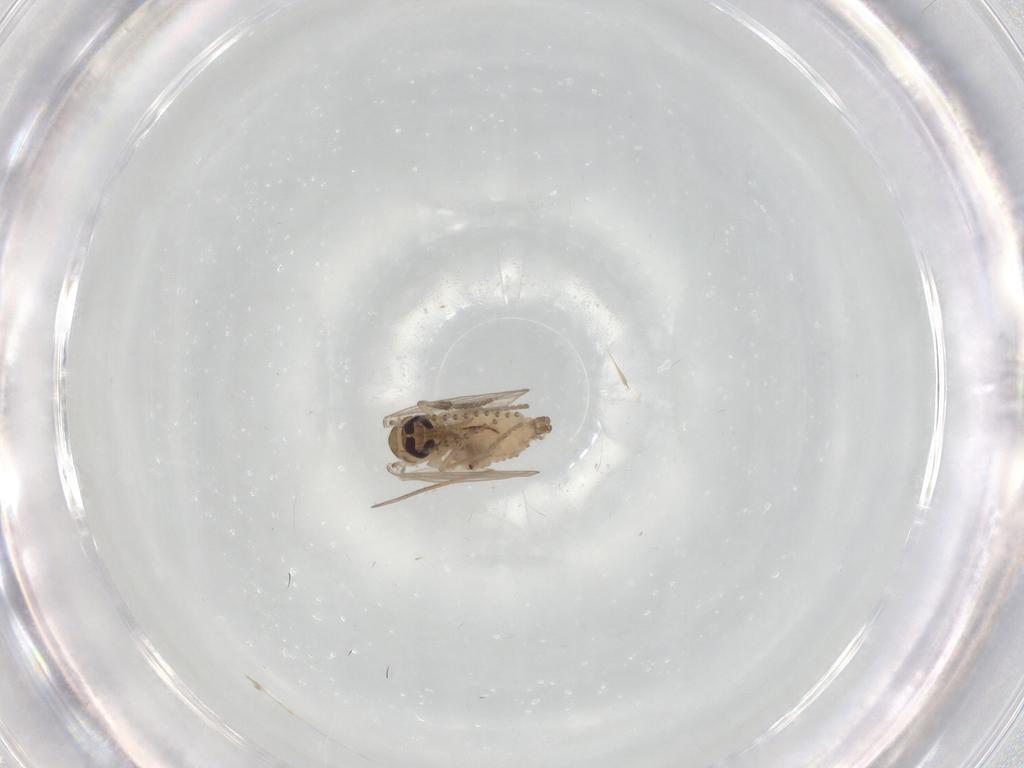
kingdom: Animalia
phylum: Arthropoda
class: Insecta
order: Diptera
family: Psychodidae
